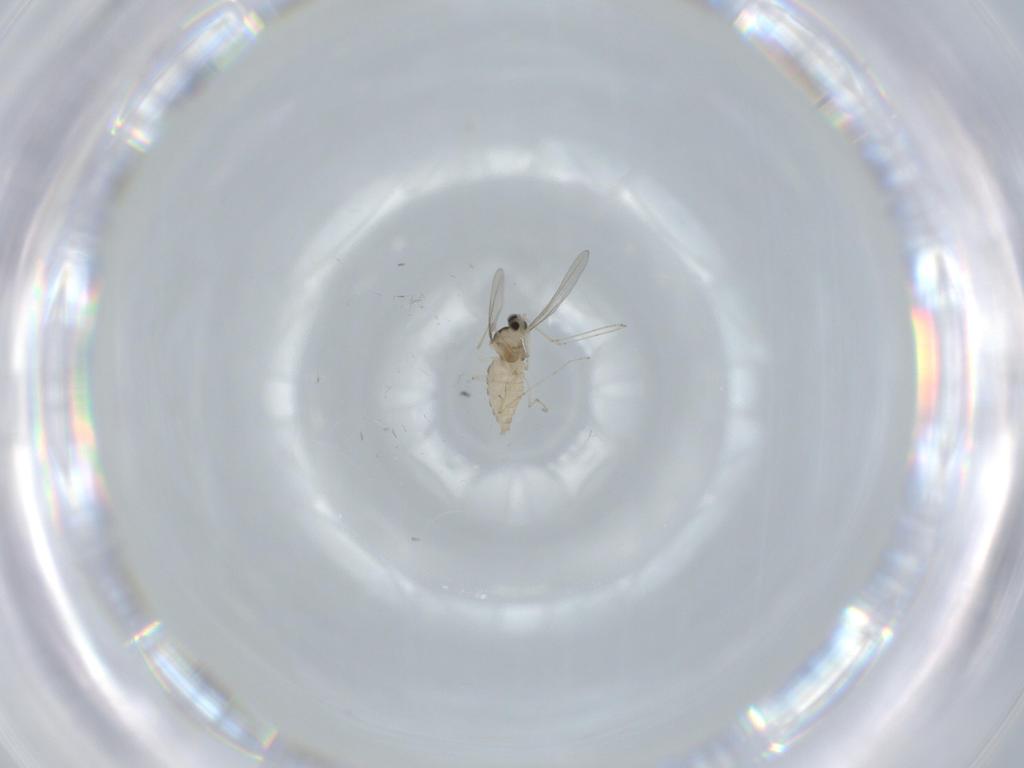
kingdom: Animalia
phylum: Arthropoda
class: Insecta
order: Diptera
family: Cecidomyiidae
